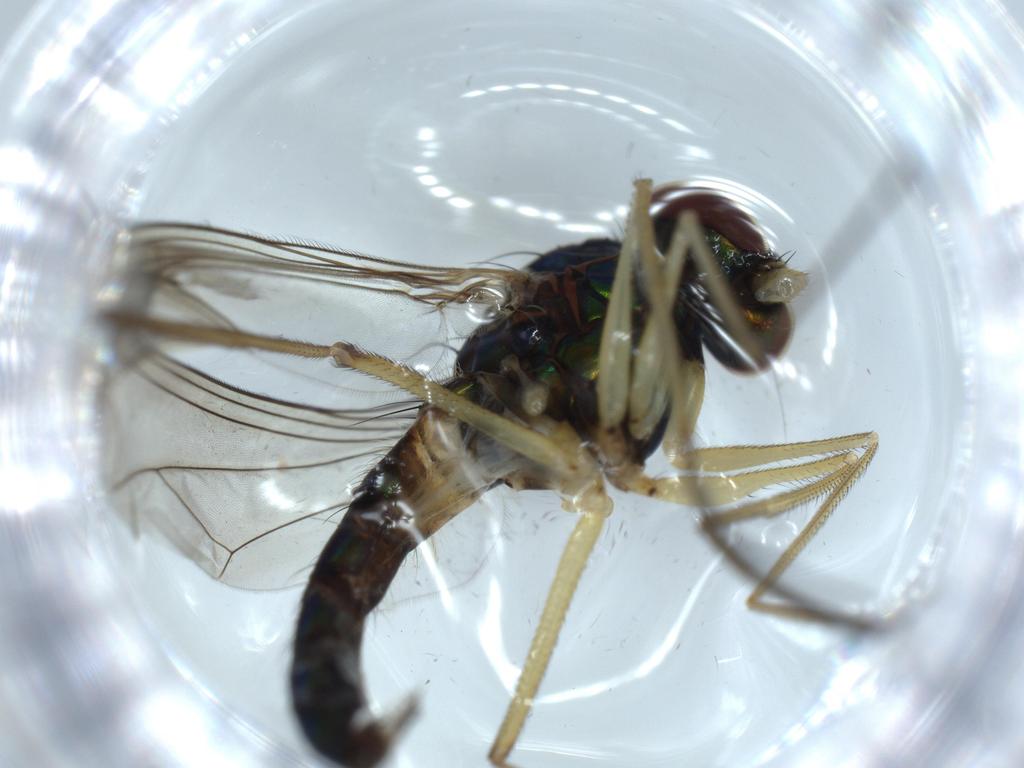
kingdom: Animalia
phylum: Arthropoda
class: Insecta
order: Diptera
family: Dolichopodidae
